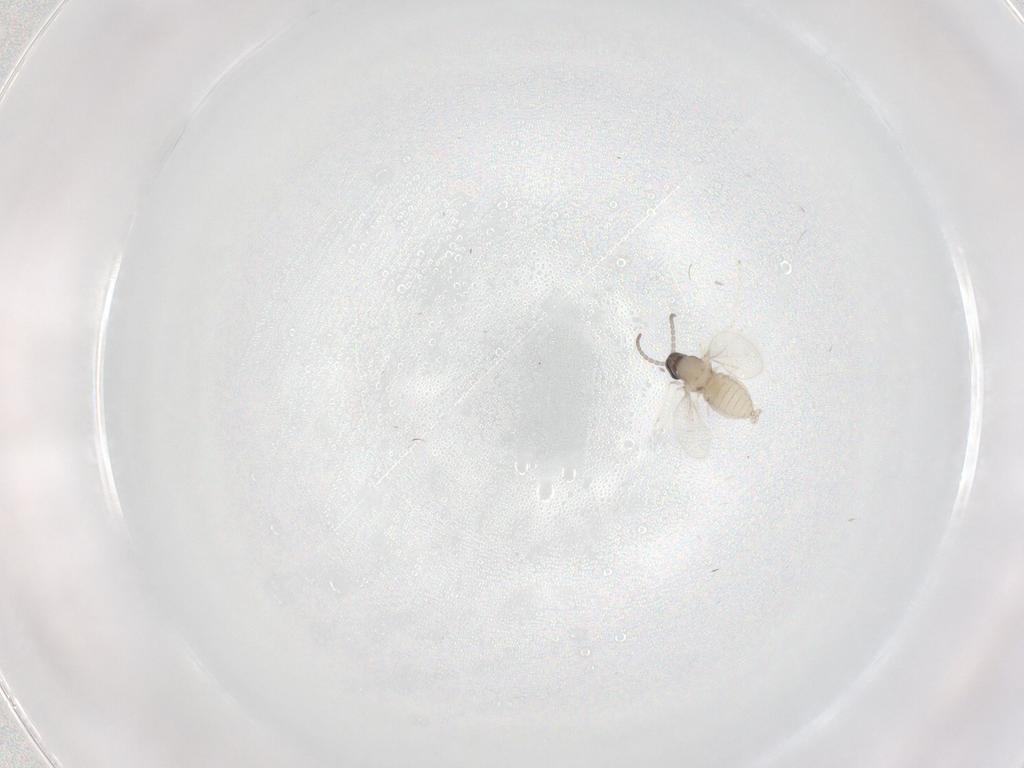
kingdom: Animalia
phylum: Arthropoda
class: Insecta
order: Diptera
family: Cecidomyiidae
